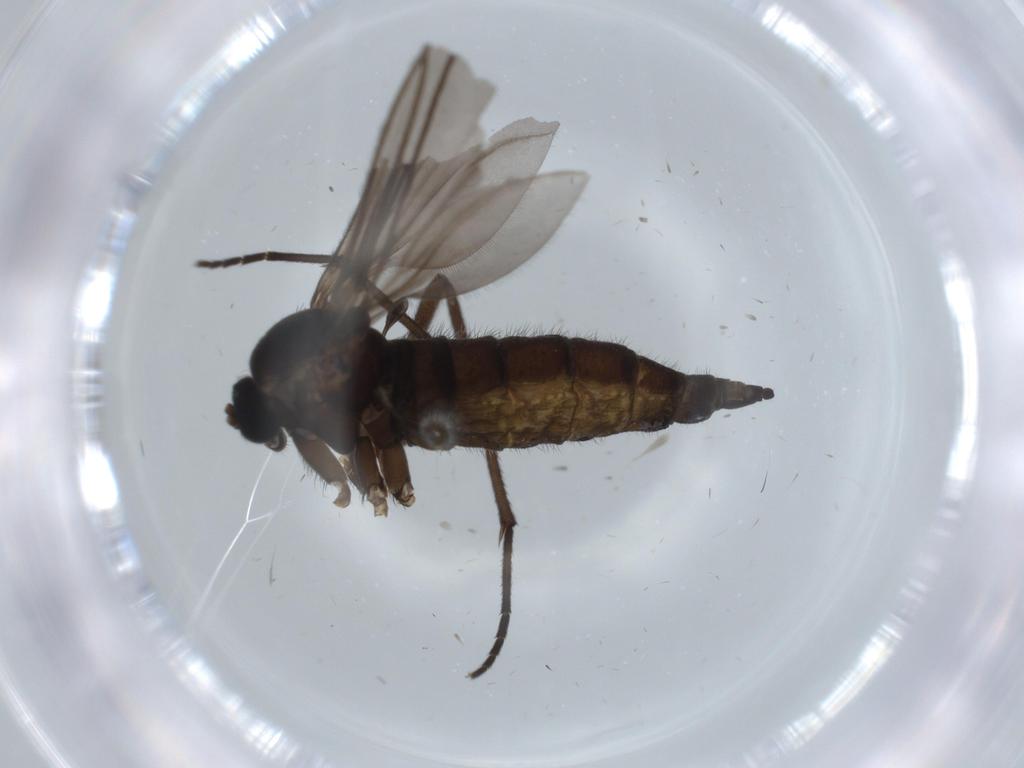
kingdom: Animalia
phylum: Arthropoda
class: Insecta
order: Diptera
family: Sciaridae
